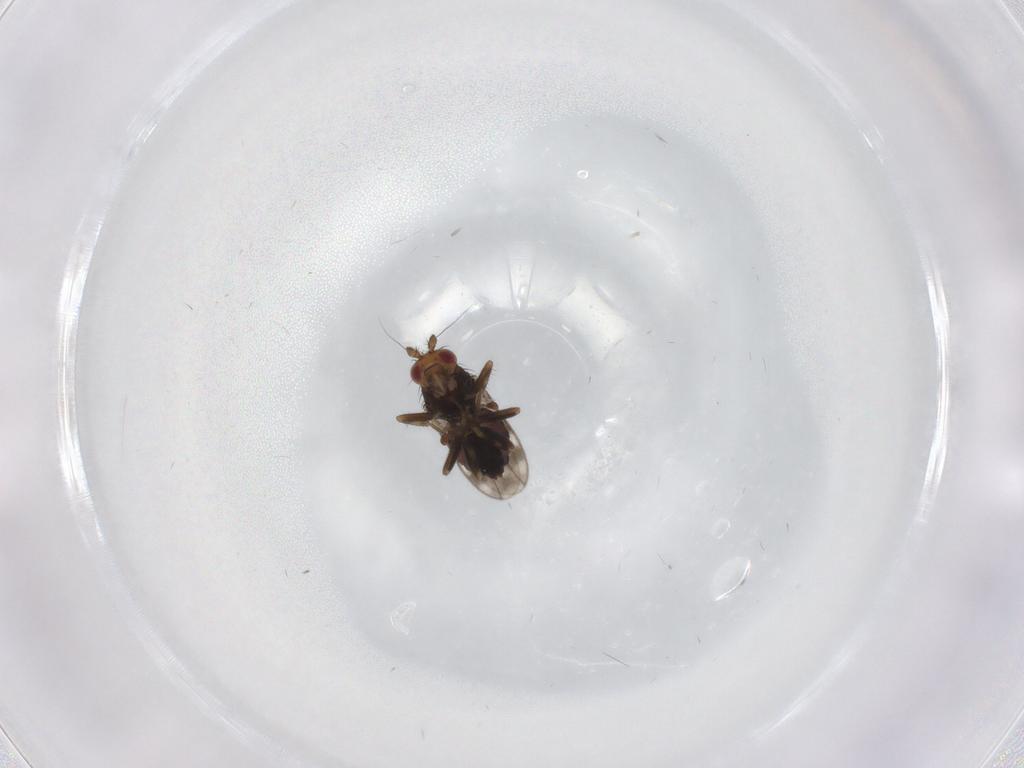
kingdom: Animalia
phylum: Arthropoda
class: Insecta
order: Diptera
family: Sphaeroceridae
